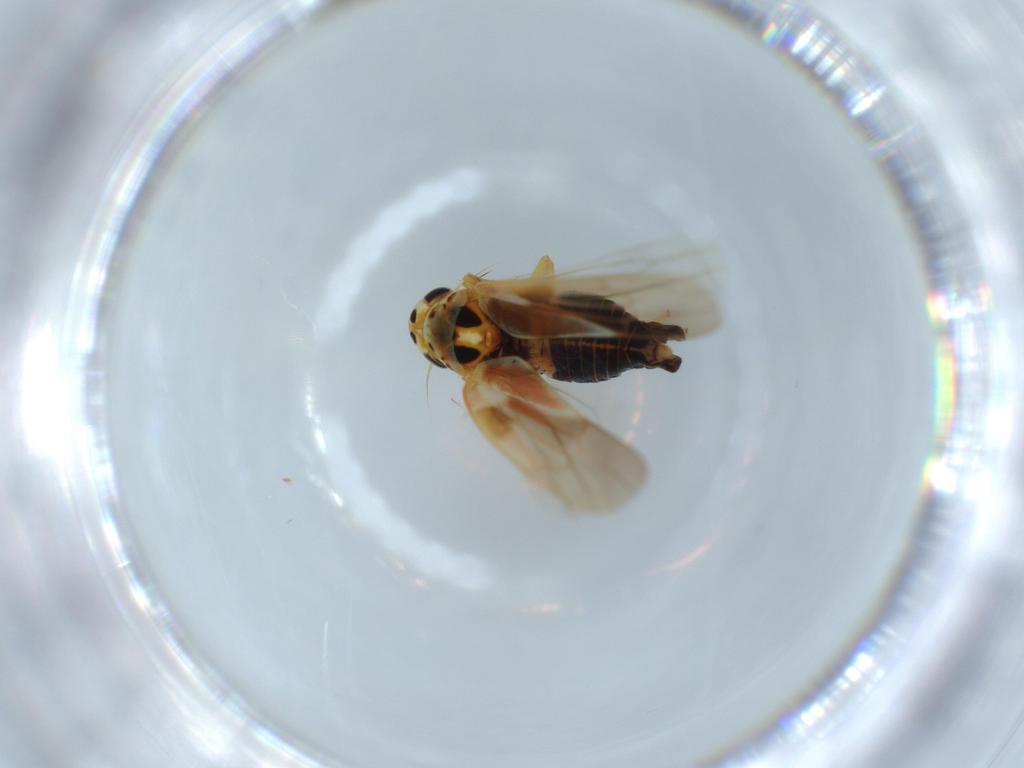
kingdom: Animalia
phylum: Arthropoda
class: Insecta
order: Hemiptera
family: Cicadellidae
